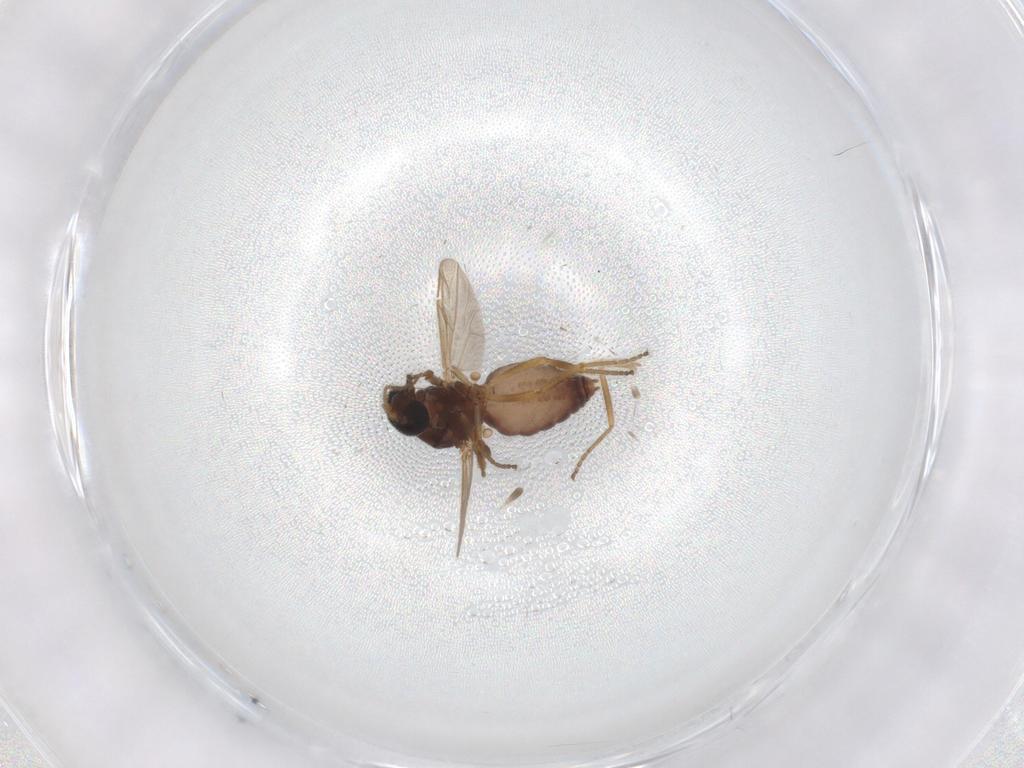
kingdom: Animalia
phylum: Arthropoda
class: Insecta
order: Diptera
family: Ceratopogonidae
